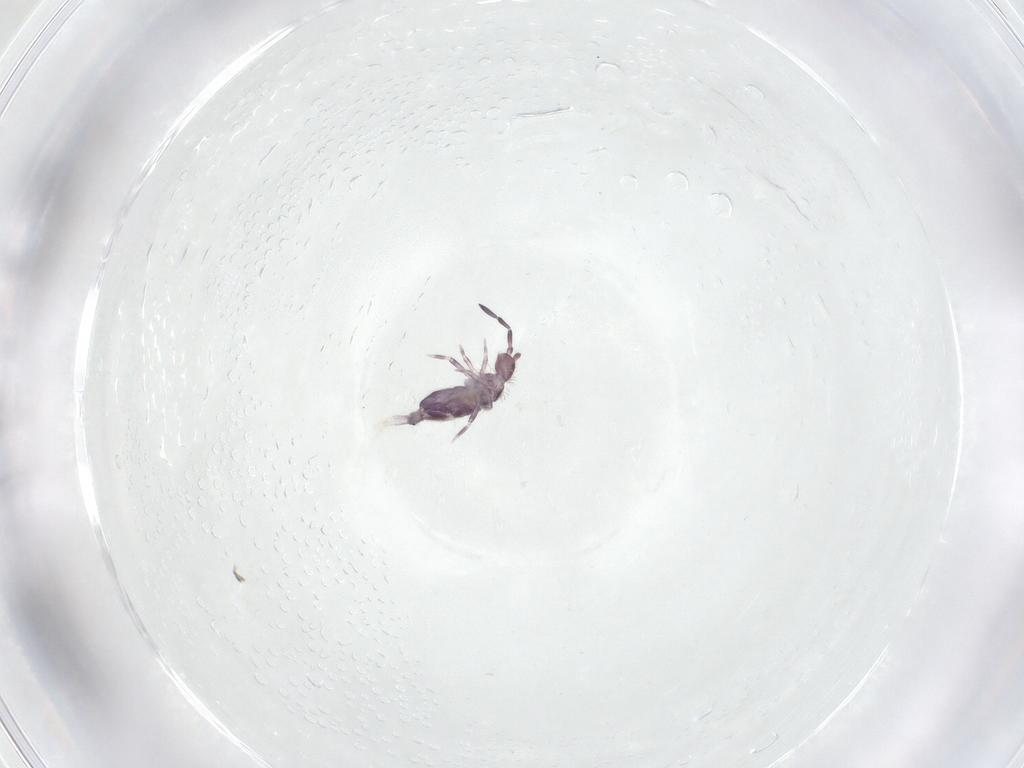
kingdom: Animalia
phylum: Arthropoda
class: Collembola
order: Entomobryomorpha
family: Entomobryidae
